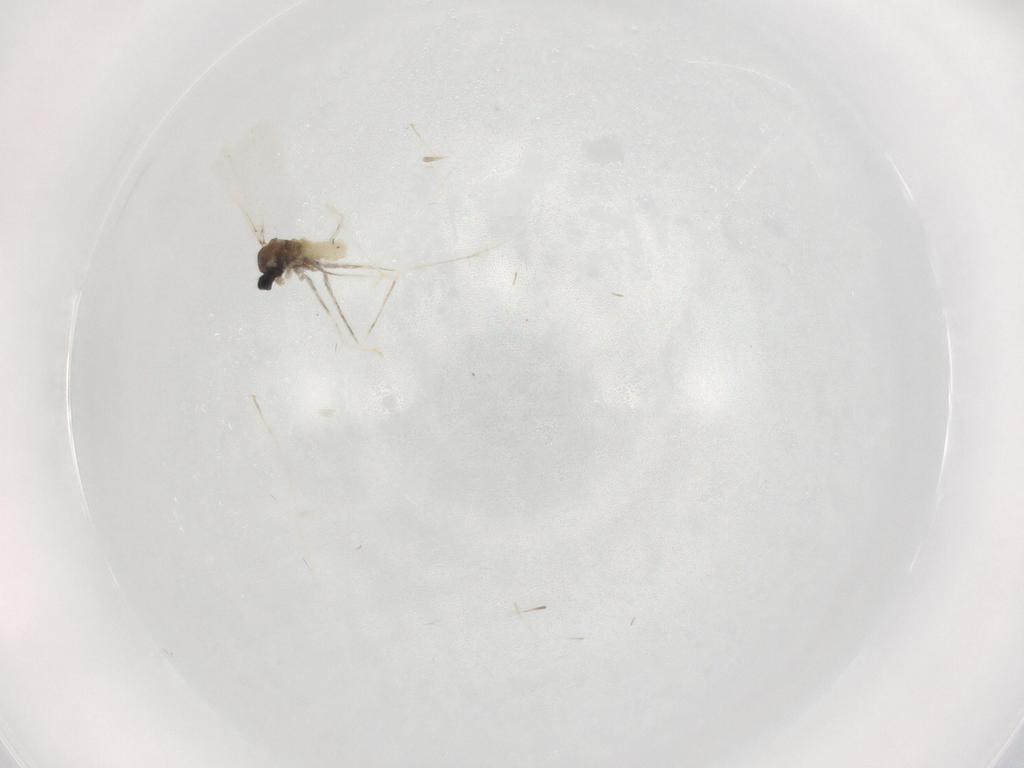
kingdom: Animalia
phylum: Arthropoda
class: Insecta
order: Diptera
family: Cecidomyiidae
